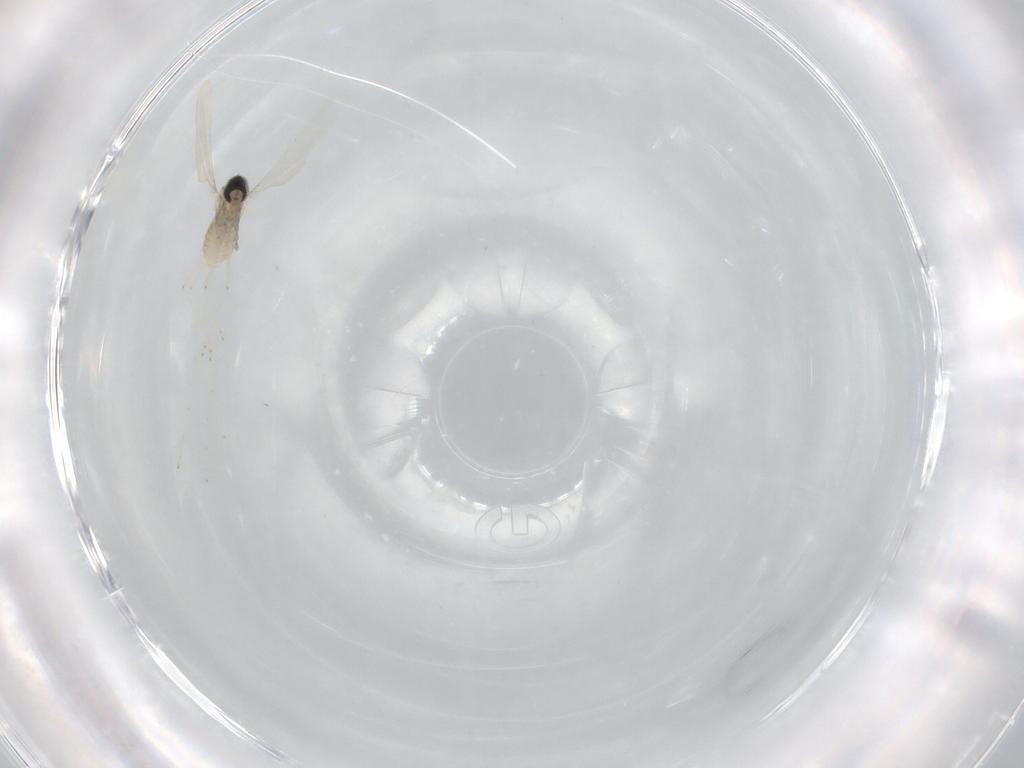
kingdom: Animalia
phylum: Arthropoda
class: Insecta
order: Diptera
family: Cecidomyiidae
